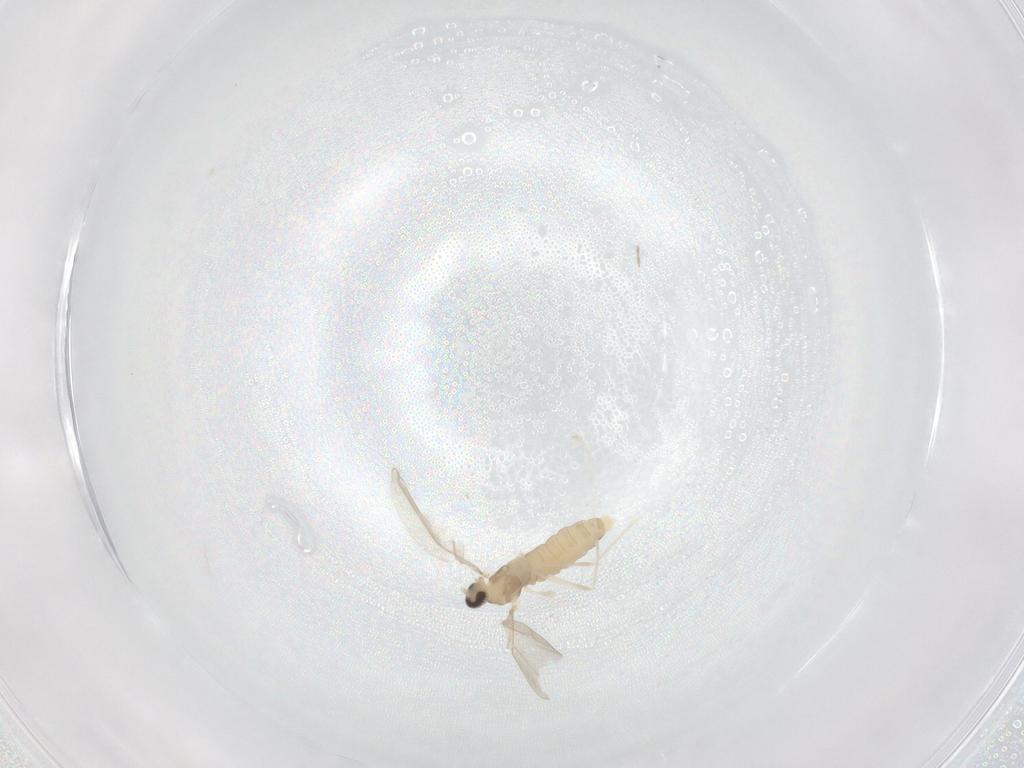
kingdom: Animalia
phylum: Arthropoda
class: Insecta
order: Diptera
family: Cecidomyiidae
